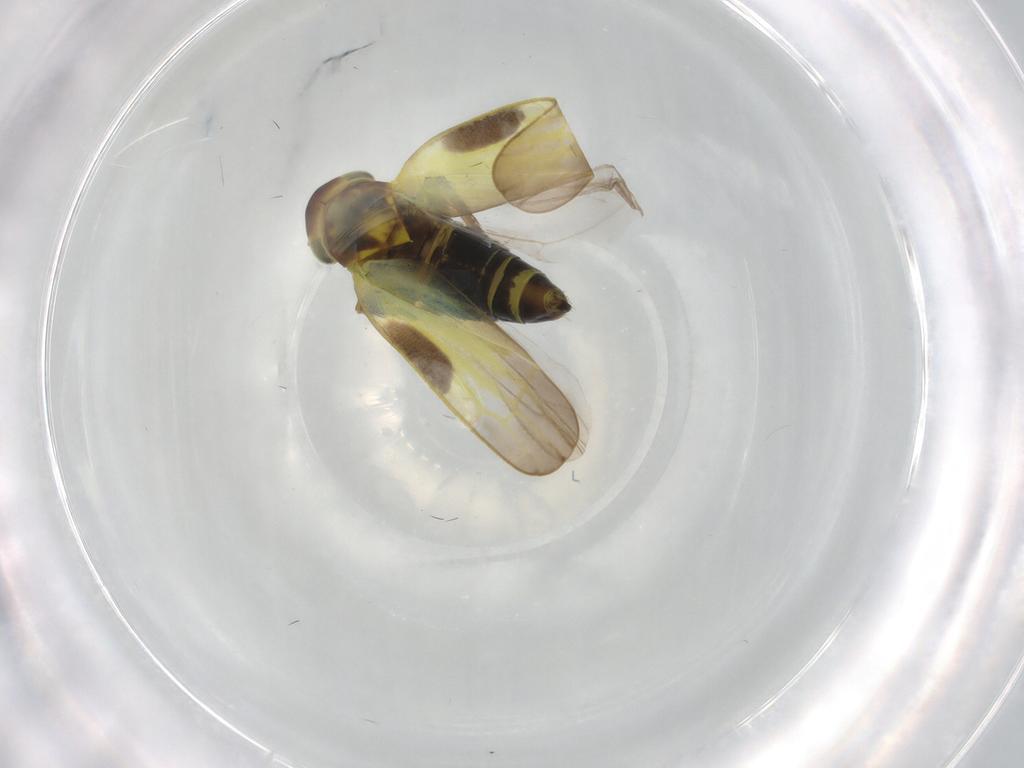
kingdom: Animalia
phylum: Arthropoda
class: Insecta
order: Hemiptera
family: Cicadellidae
